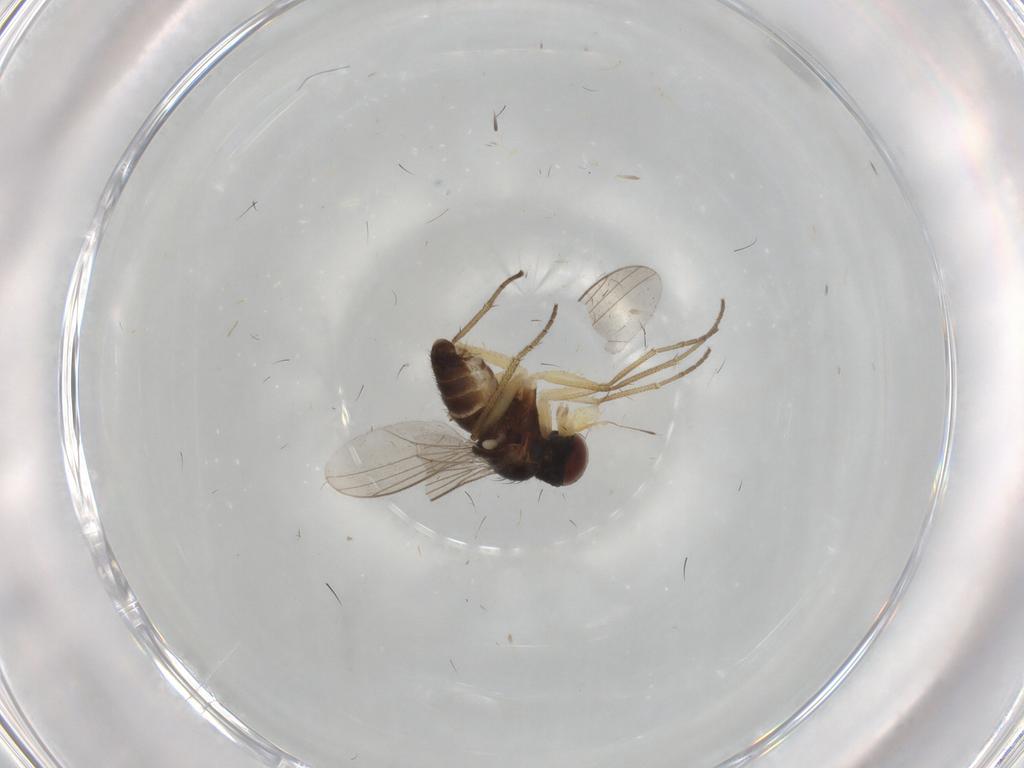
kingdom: Animalia
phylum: Arthropoda
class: Insecta
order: Diptera
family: Dolichopodidae
